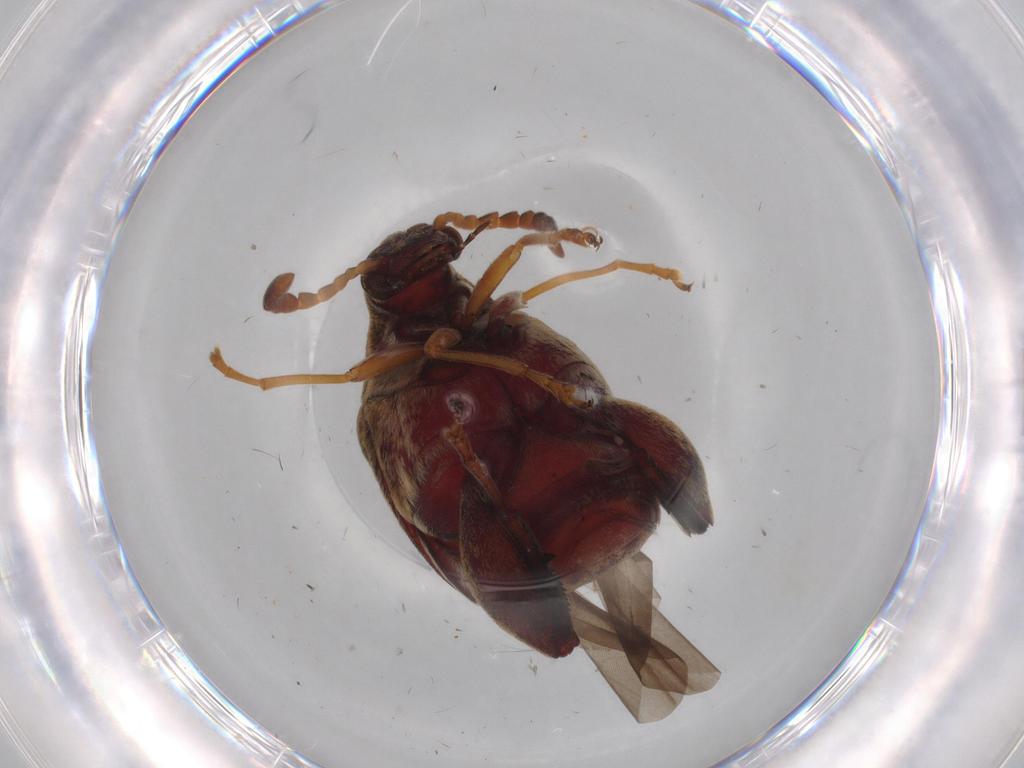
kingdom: Animalia
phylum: Arthropoda
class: Insecta
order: Coleoptera
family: Chrysomelidae
